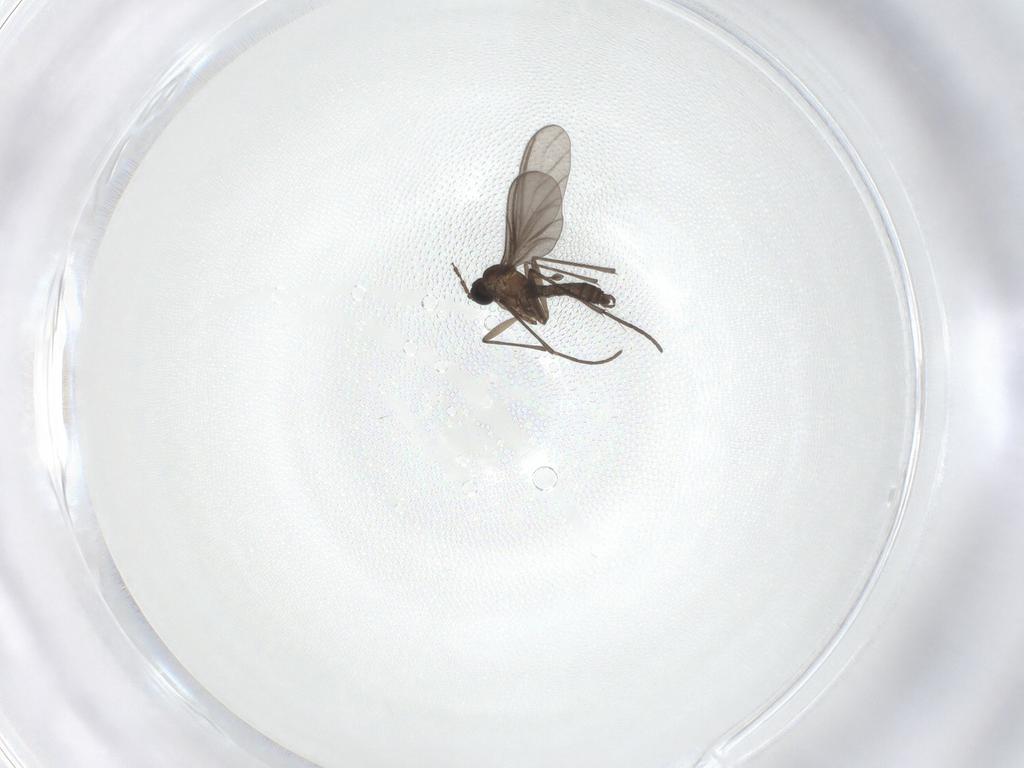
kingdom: Animalia
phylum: Arthropoda
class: Insecta
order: Diptera
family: Sciaridae
